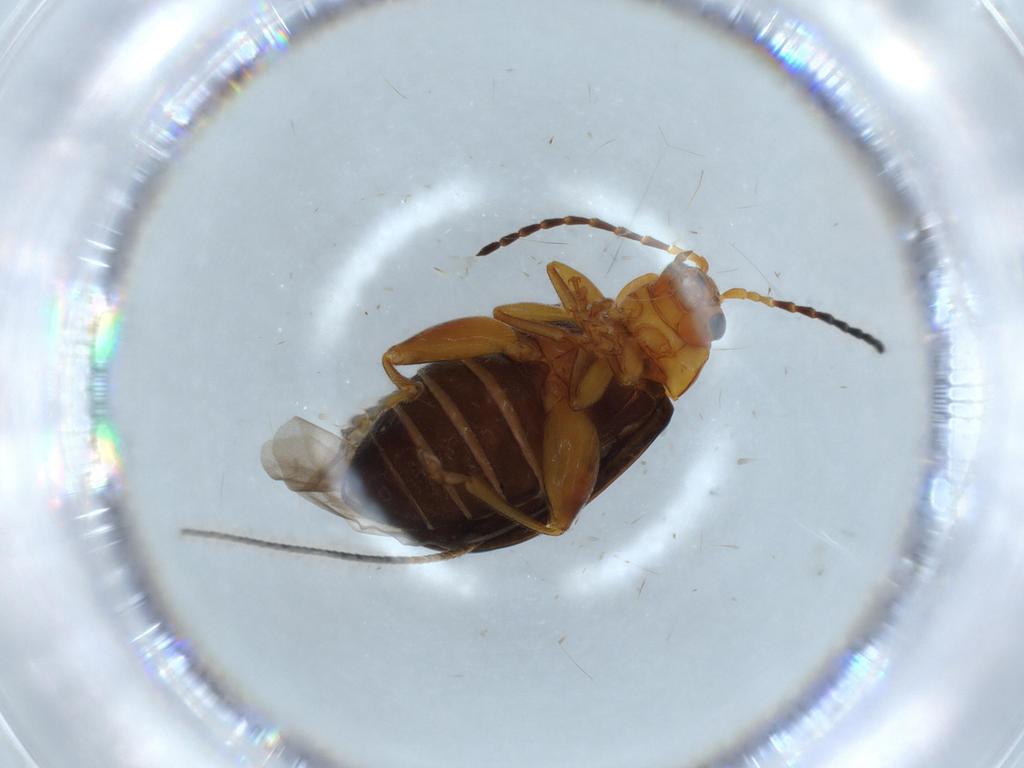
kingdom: Animalia
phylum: Arthropoda
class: Insecta
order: Coleoptera
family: Chrysomelidae
